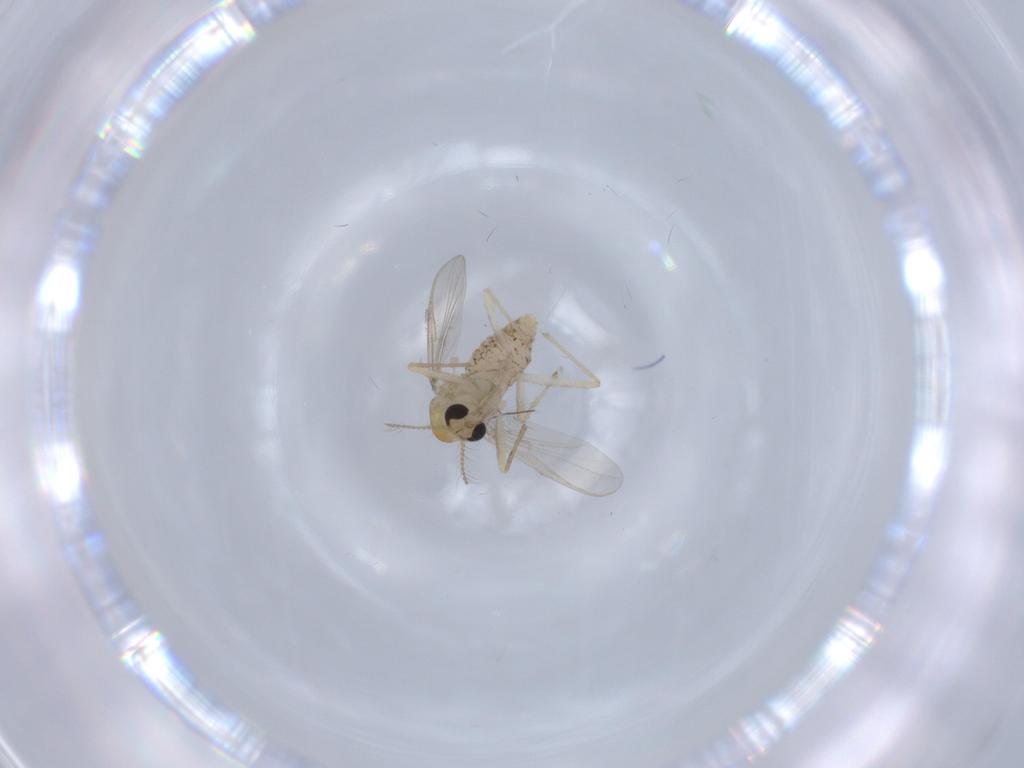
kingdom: Animalia
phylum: Arthropoda
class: Insecta
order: Diptera
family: Chironomidae
